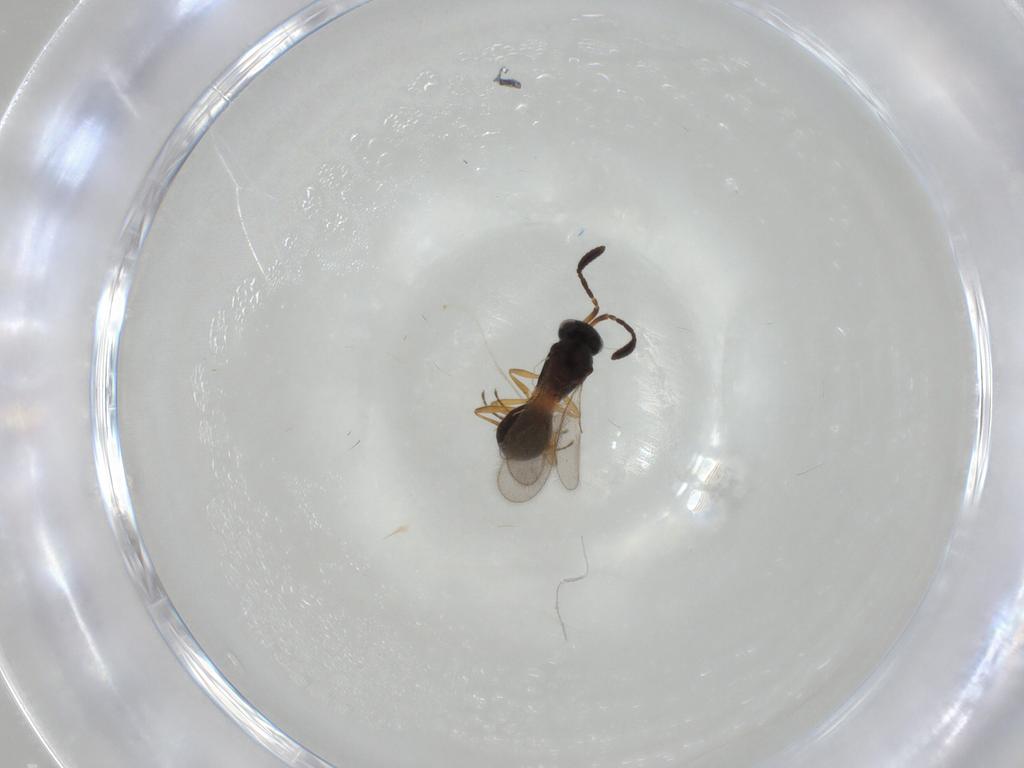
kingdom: Animalia
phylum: Arthropoda
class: Insecta
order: Hymenoptera
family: Scelionidae
